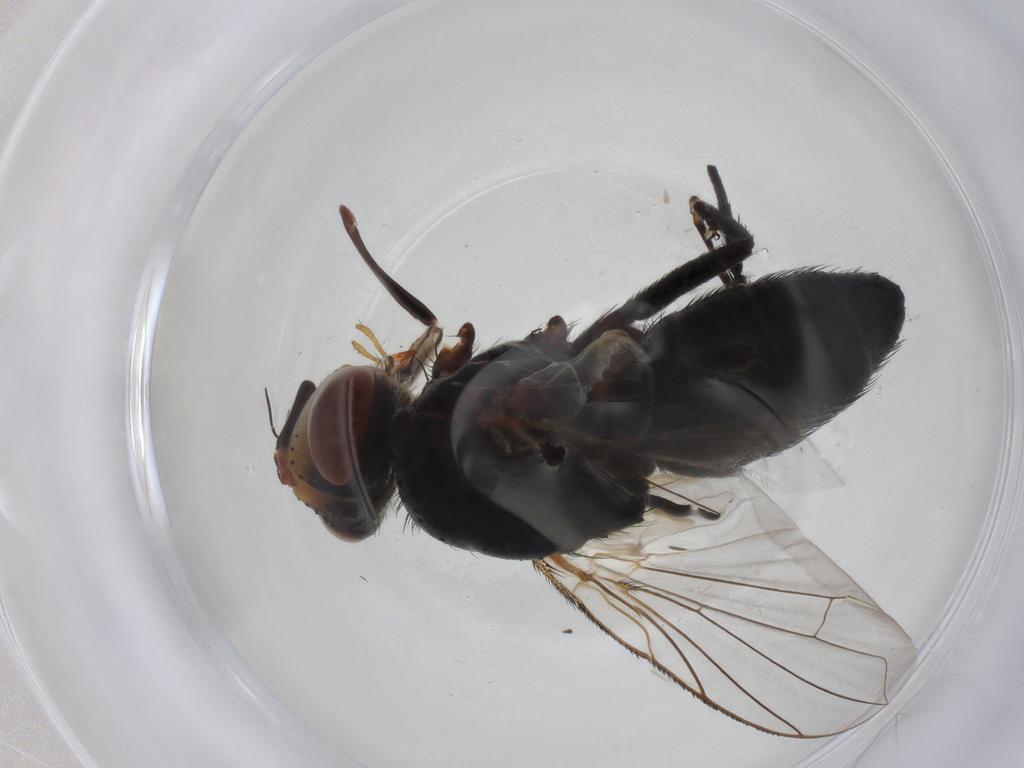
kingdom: Animalia
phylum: Arthropoda
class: Insecta
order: Diptera
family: Tachinidae
